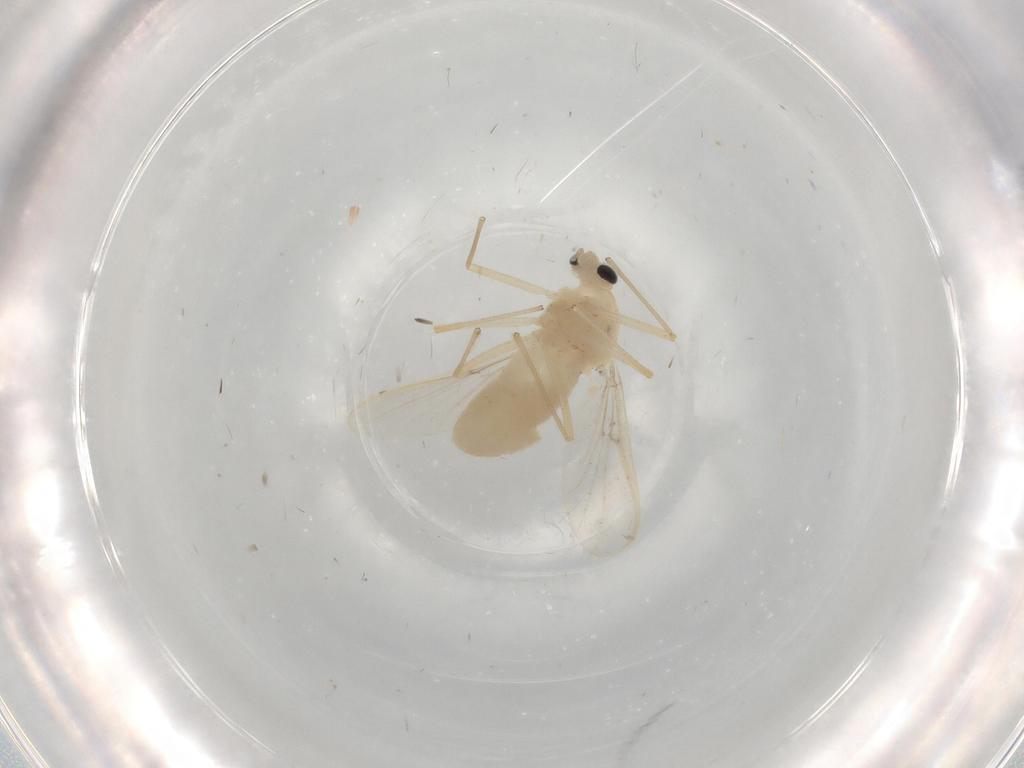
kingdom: Animalia
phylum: Arthropoda
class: Insecta
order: Diptera
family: Chironomidae
